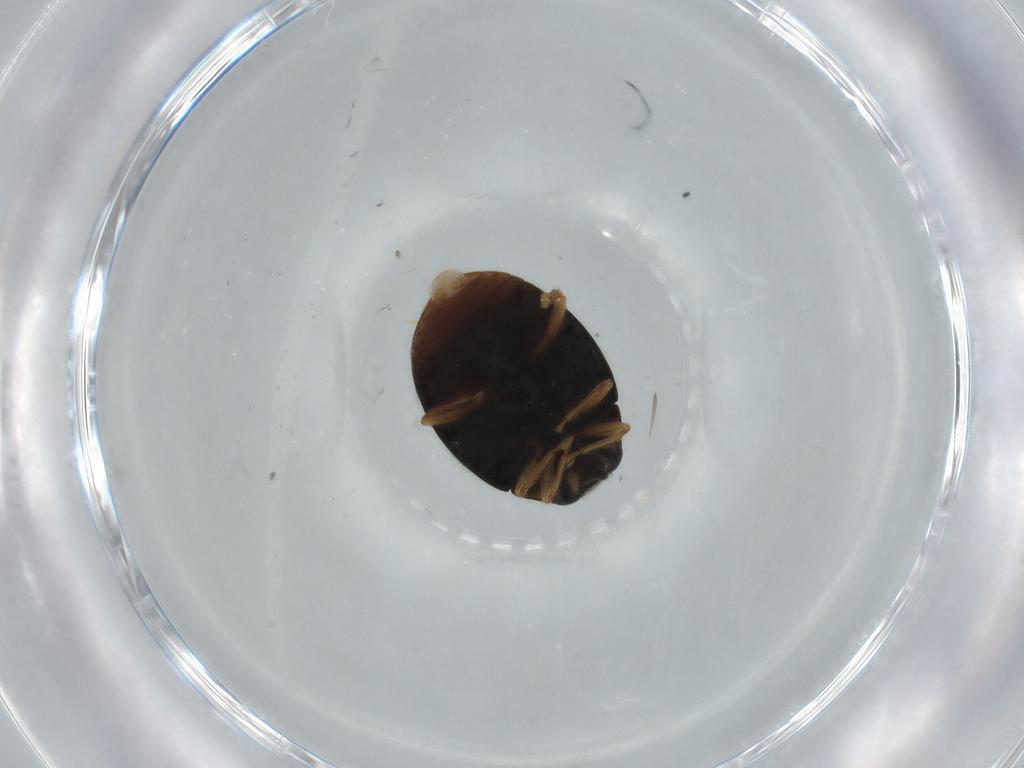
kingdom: Animalia
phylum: Arthropoda
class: Insecta
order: Coleoptera
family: Coccinellidae
